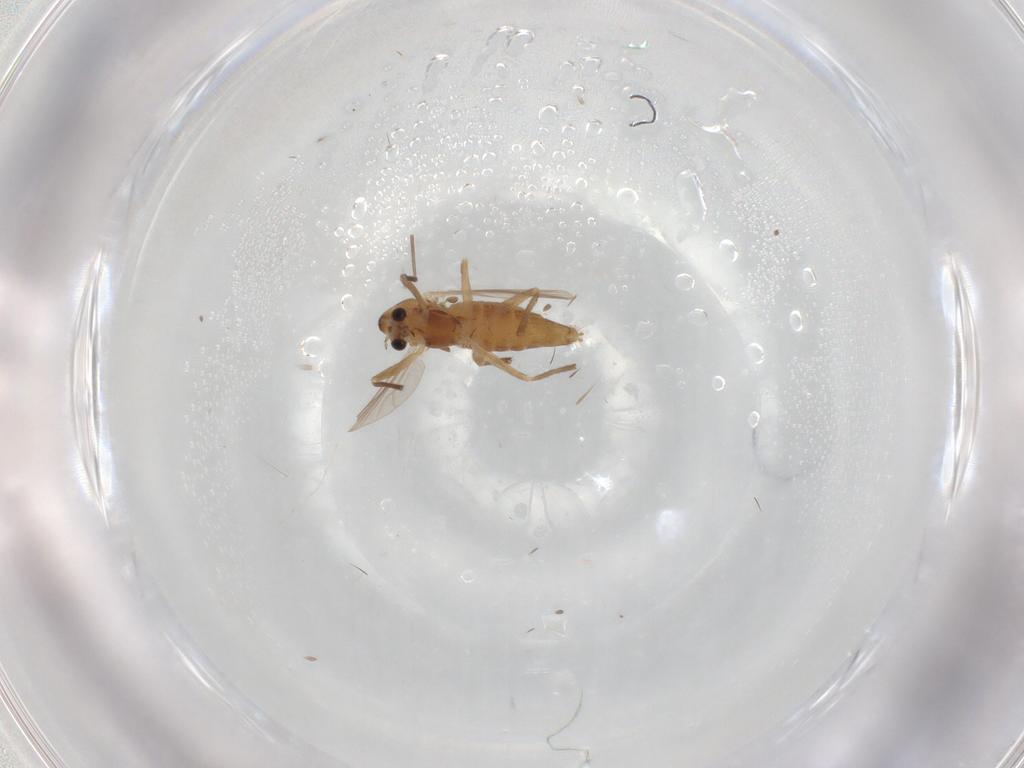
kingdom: Animalia
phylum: Arthropoda
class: Insecta
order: Diptera
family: Chironomidae
